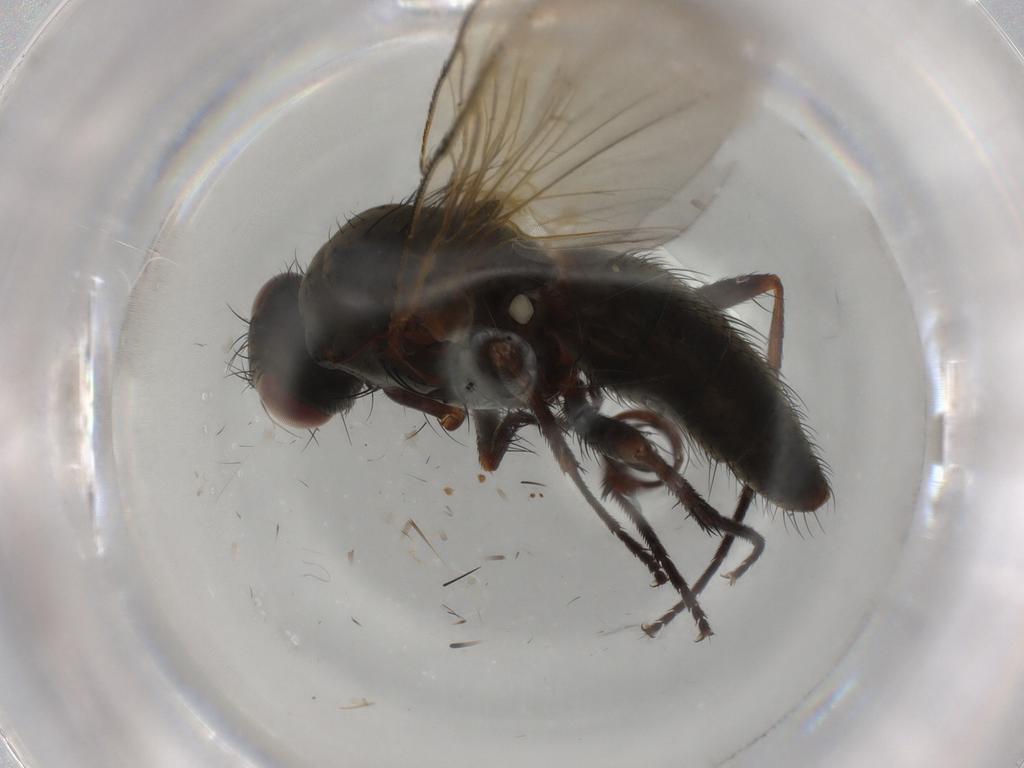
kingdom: Animalia
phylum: Arthropoda
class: Insecta
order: Diptera
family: Anthomyiidae
